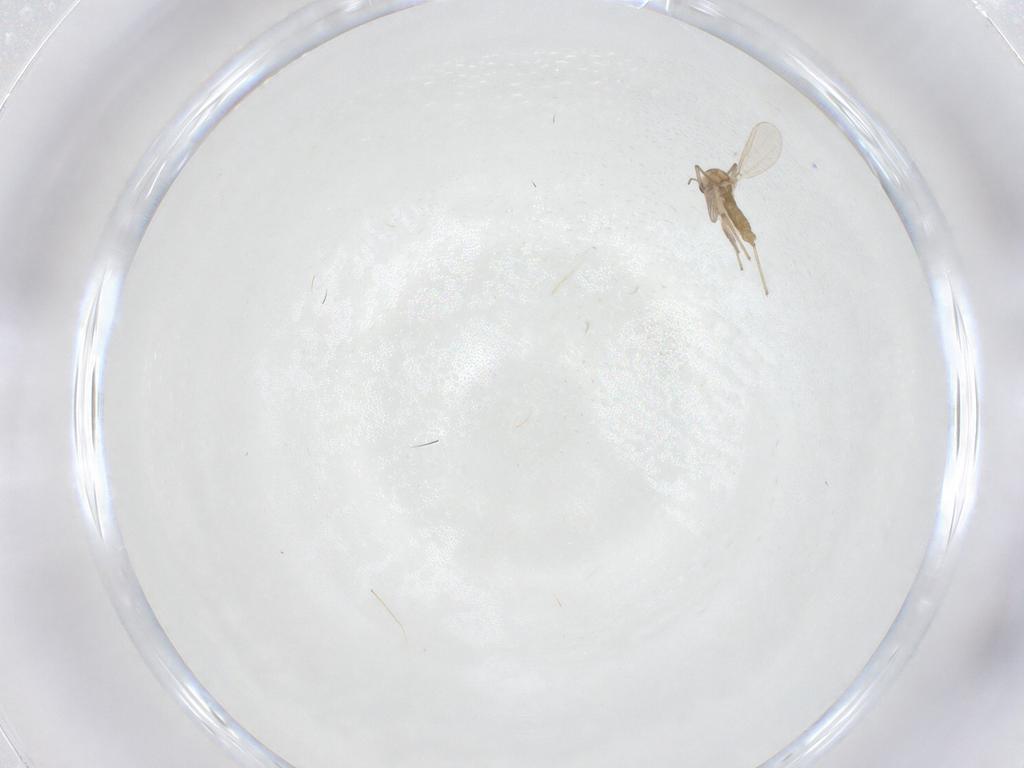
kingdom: Animalia
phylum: Arthropoda
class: Insecta
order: Diptera
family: Chironomidae
